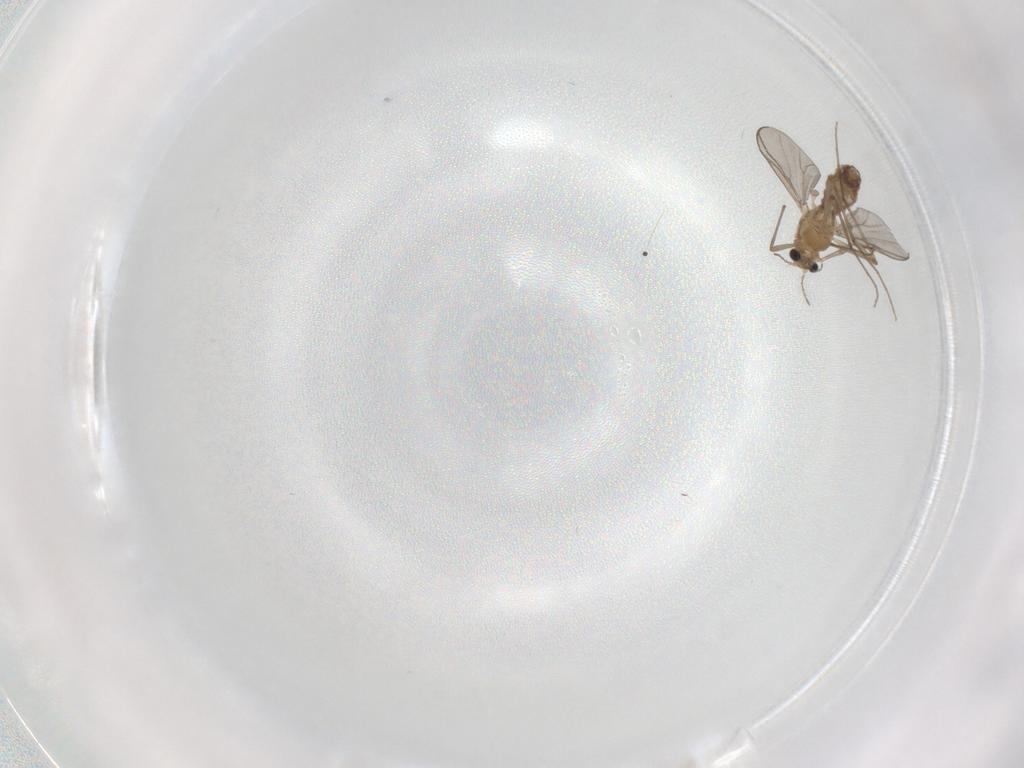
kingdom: Animalia
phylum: Arthropoda
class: Insecta
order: Diptera
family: Chironomidae
